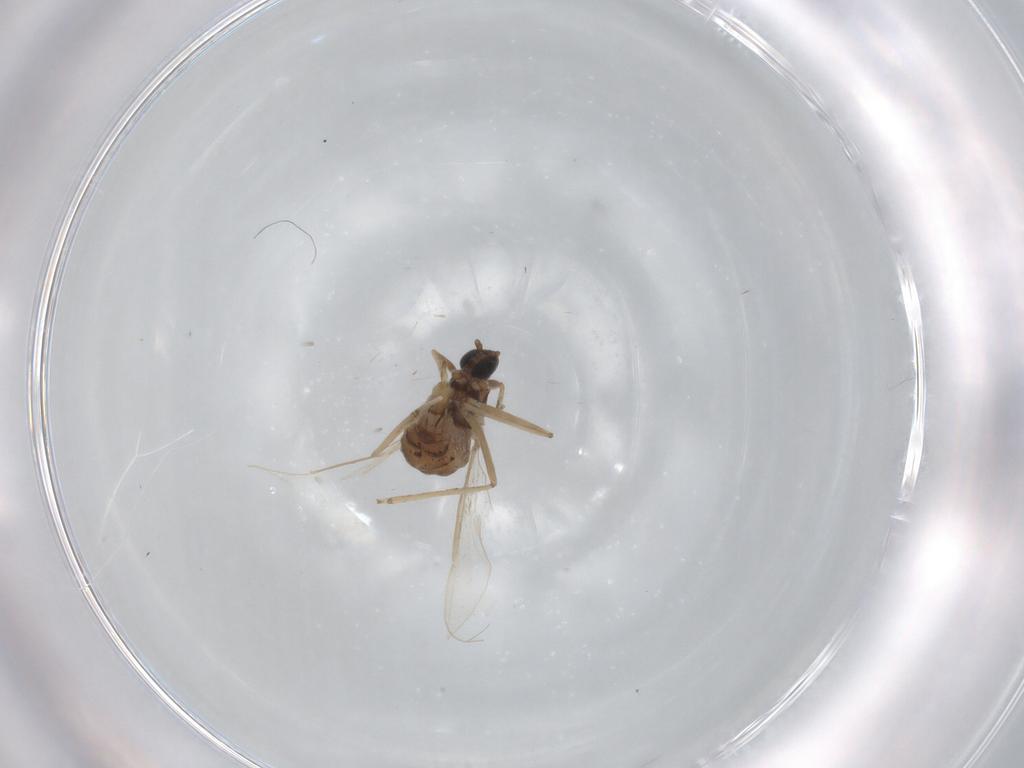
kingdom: Animalia
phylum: Arthropoda
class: Insecta
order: Diptera
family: Cecidomyiidae
